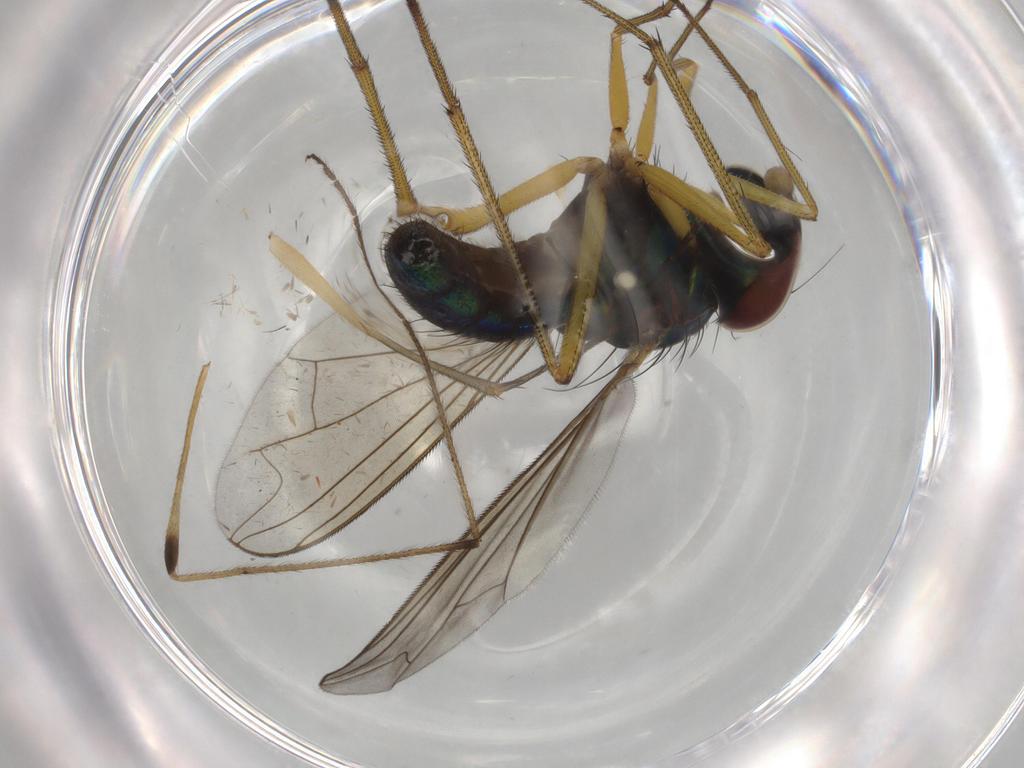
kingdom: Animalia
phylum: Arthropoda
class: Insecta
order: Diptera
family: Dolichopodidae
